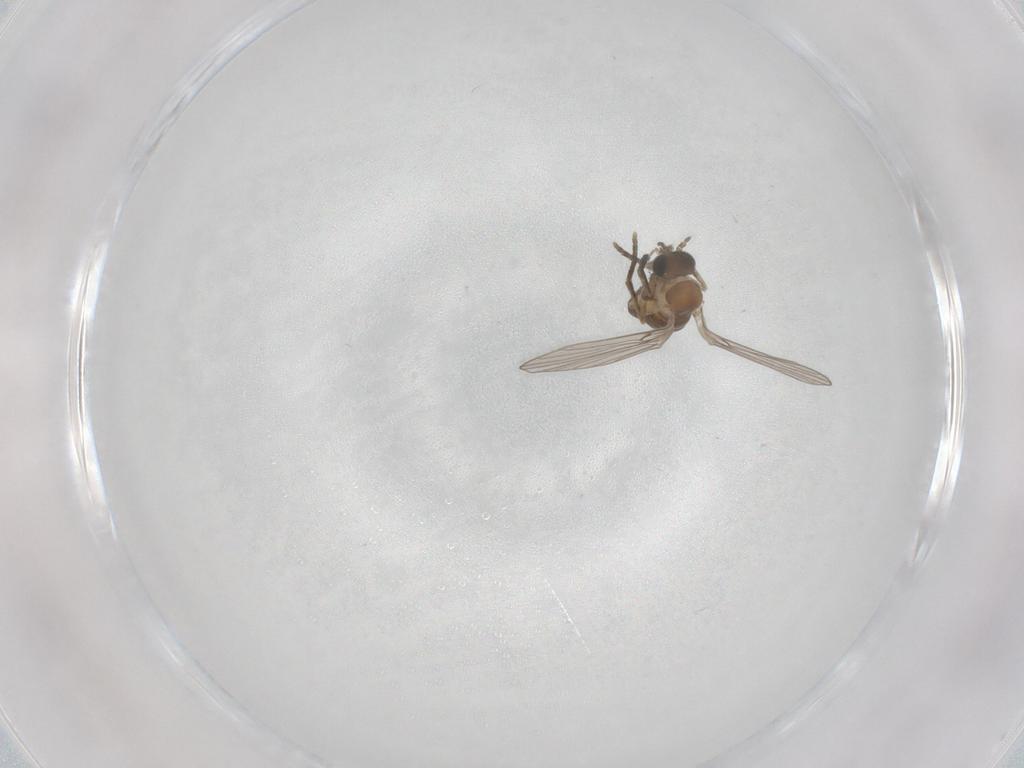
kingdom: Animalia
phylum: Arthropoda
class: Insecta
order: Diptera
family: Psychodidae
